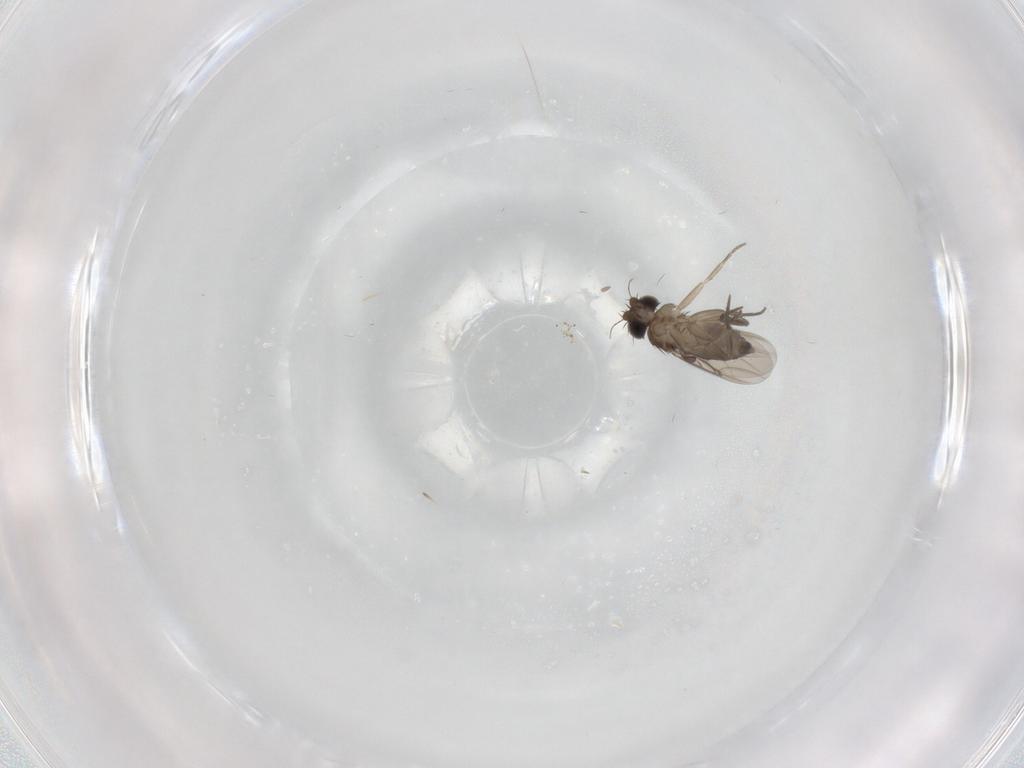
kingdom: Animalia
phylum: Arthropoda
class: Insecta
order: Diptera
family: Phoridae
